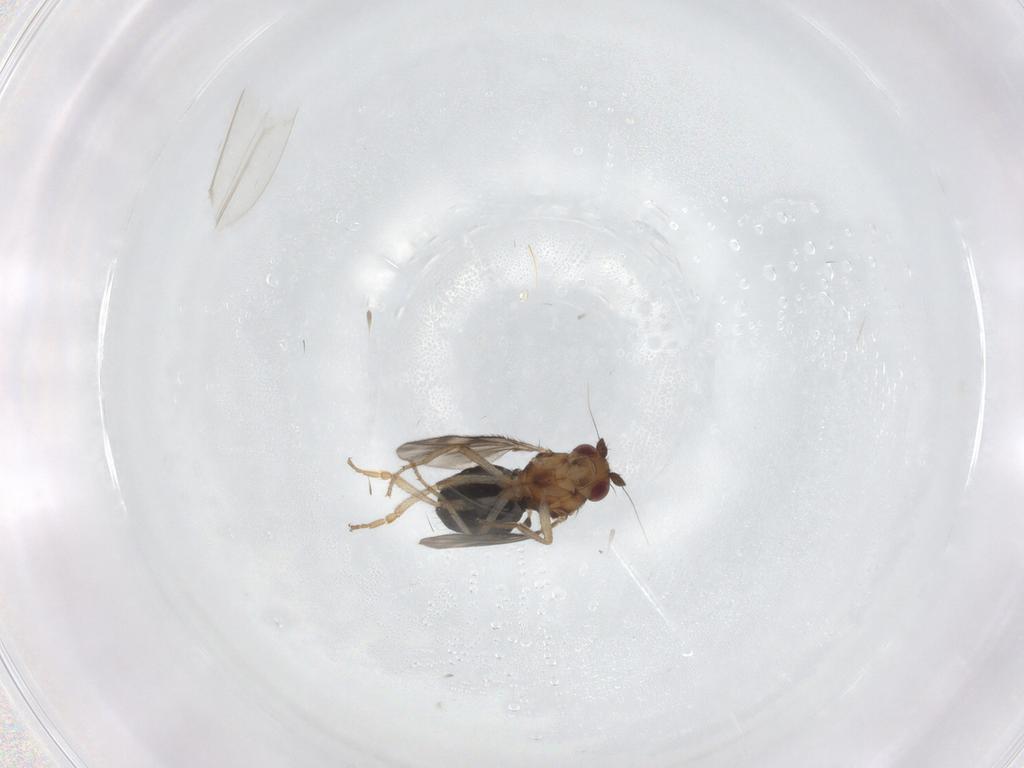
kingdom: Animalia
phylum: Arthropoda
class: Insecta
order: Diptera
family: Sphaeroceridae
